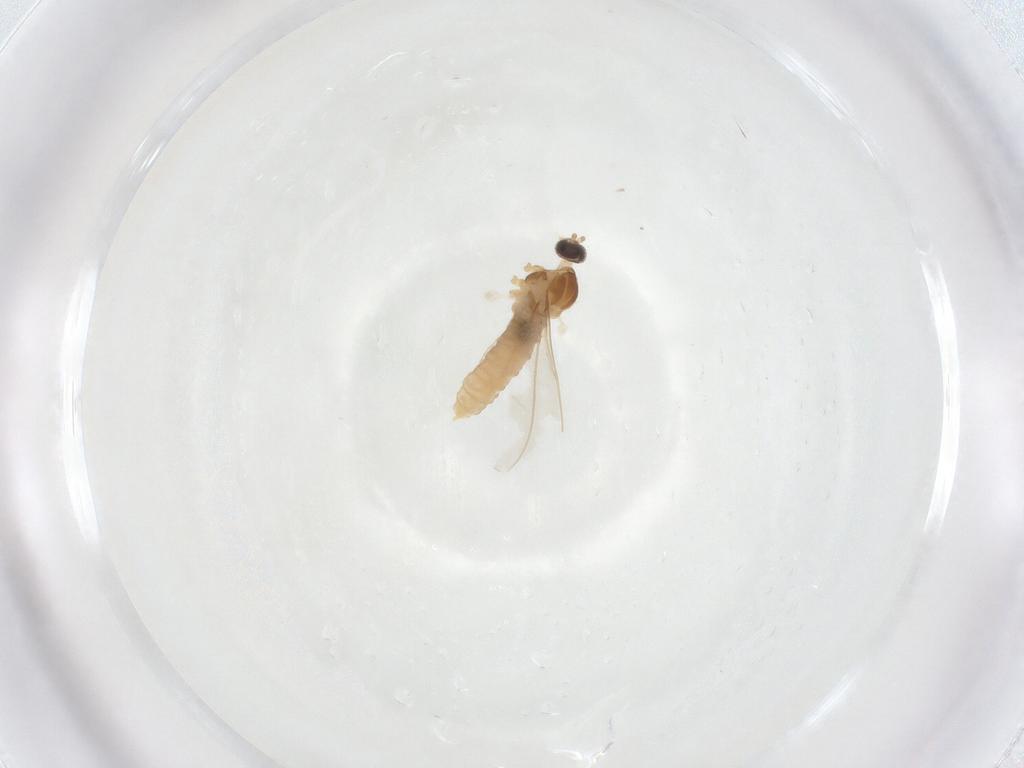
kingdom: Animalia
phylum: Arthropoda
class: Insecta
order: Diptera
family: Cecidomyiidae
